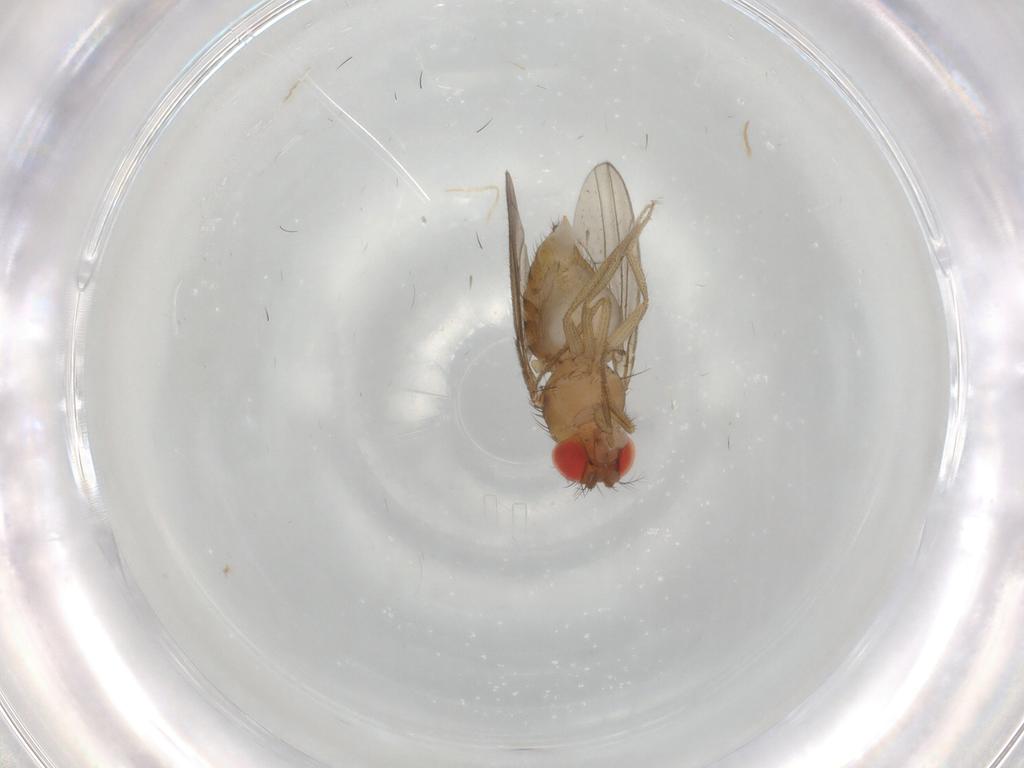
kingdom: Animalia
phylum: Arthropoda
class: Insecta
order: Diptera
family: Drosophilidae
